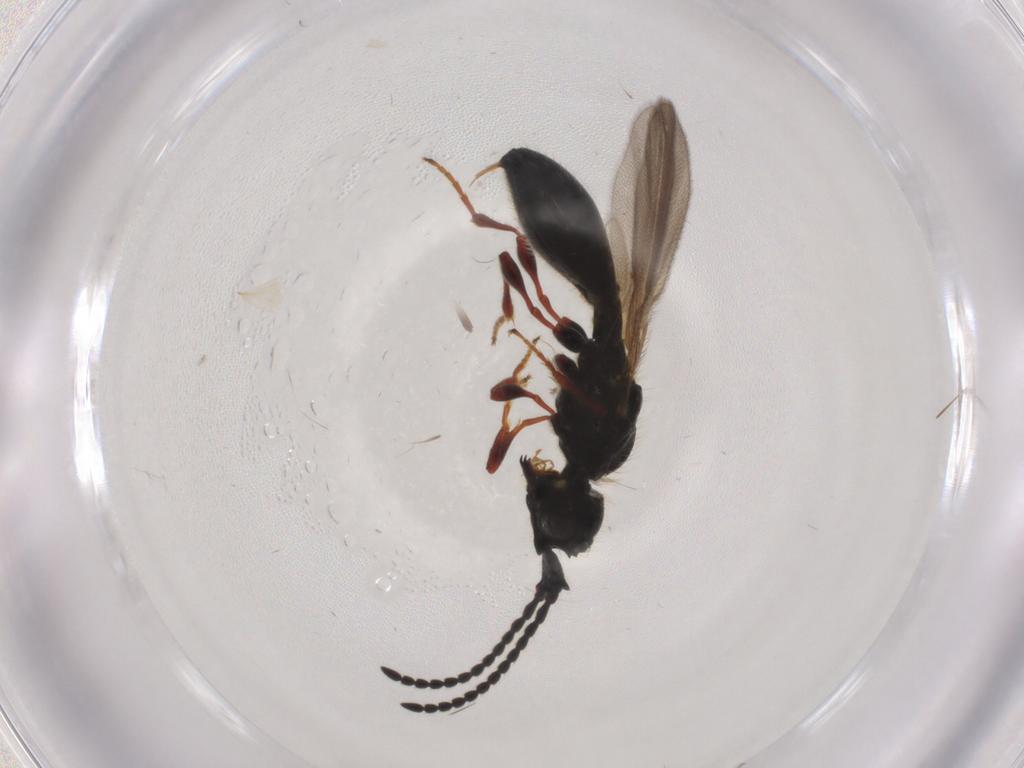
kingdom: Animalia
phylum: Arthropoda
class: Insecta
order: Hymenoptera
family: Diapriidae
